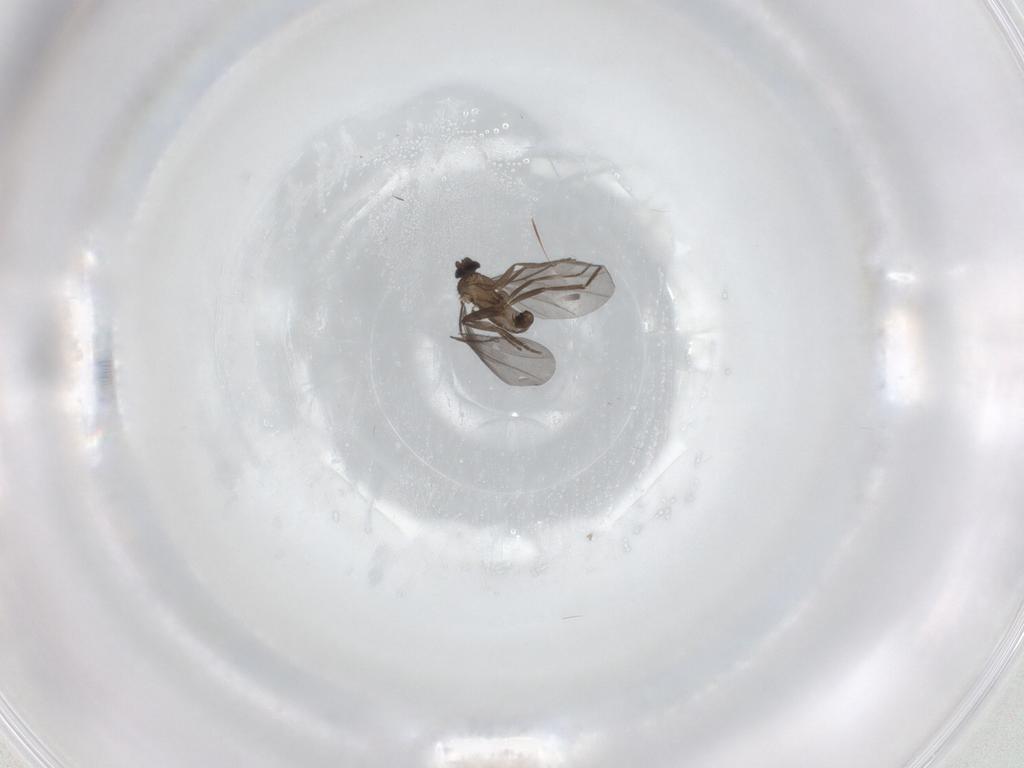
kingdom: Animalia
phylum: Arthropoda
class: Insecta
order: Diptera
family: Phoridae
